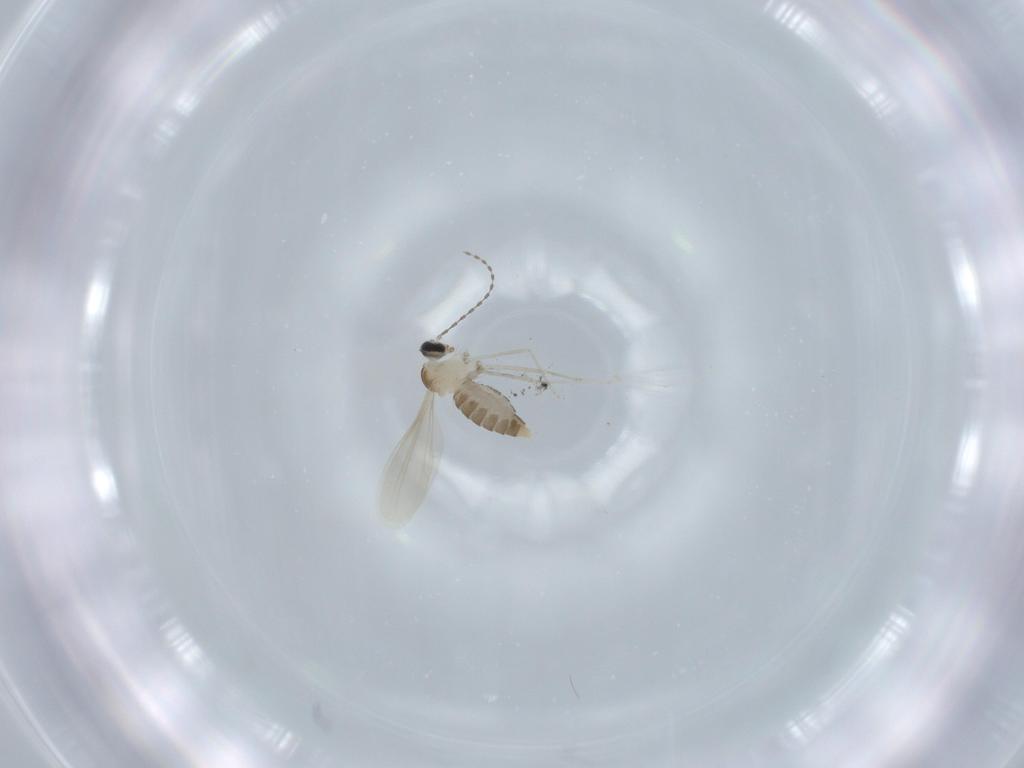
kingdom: Animalia
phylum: Arthropoda
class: Insecta
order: Diptera
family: Cecidomyiidae
